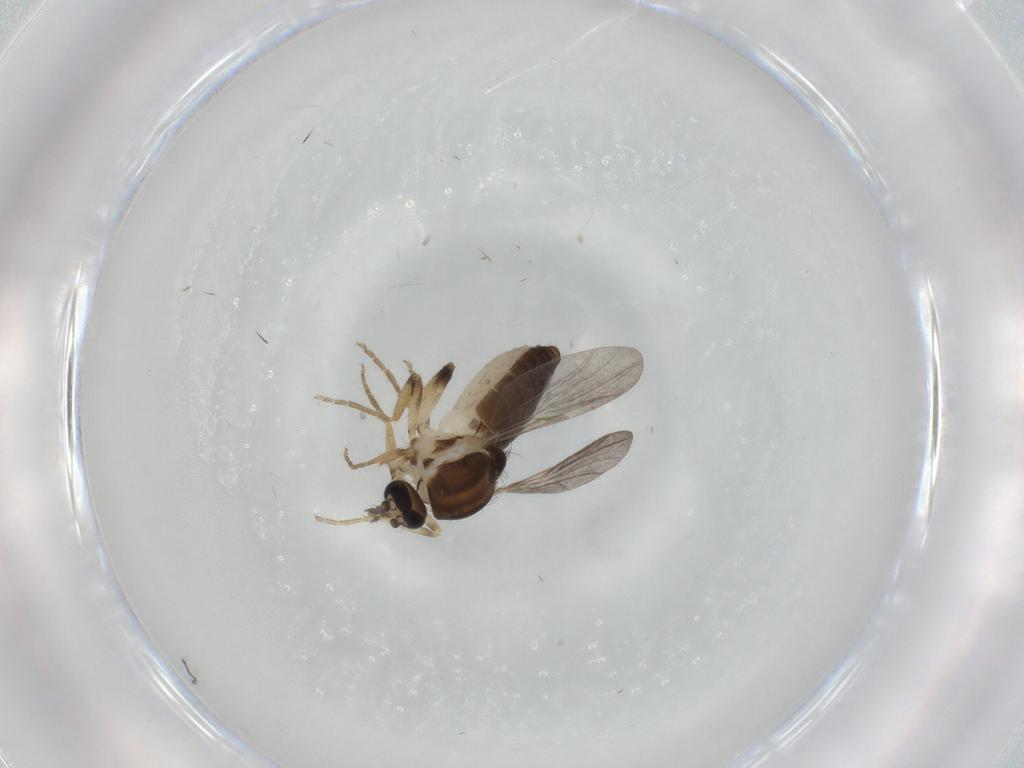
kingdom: Animalia
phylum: Arthropoda
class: Insecta
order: Diptera
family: Ceratopogonidae
